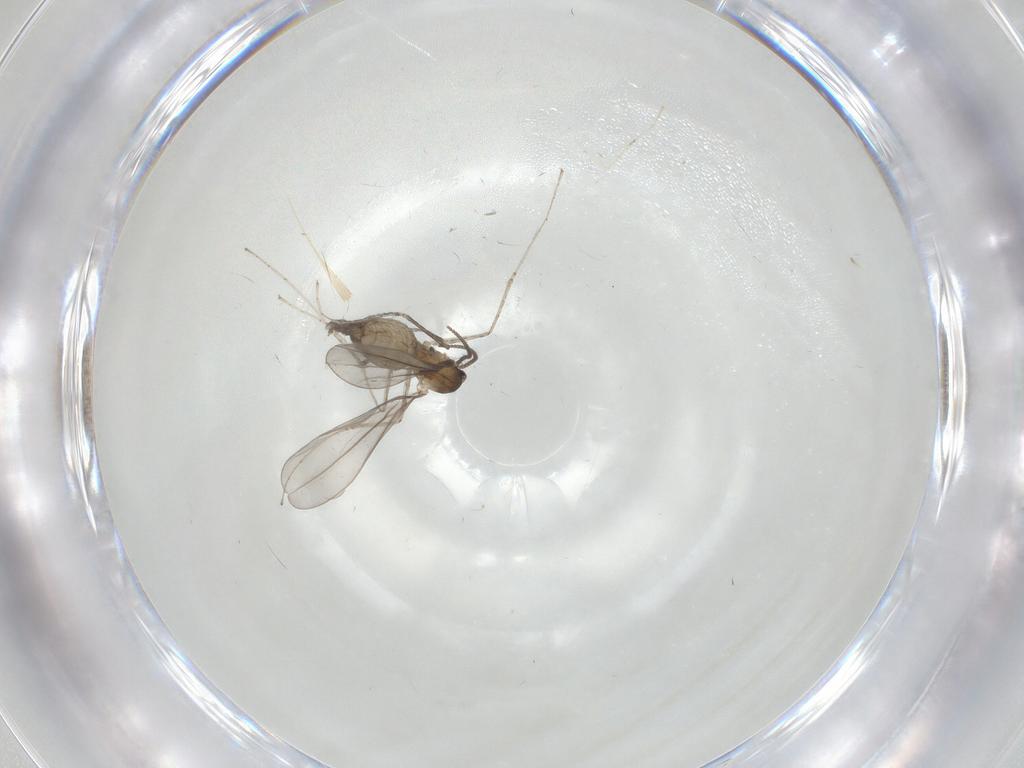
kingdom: Animalia
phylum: Arthropoda
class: Insecta
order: Diptera
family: Cecidomyiidae
